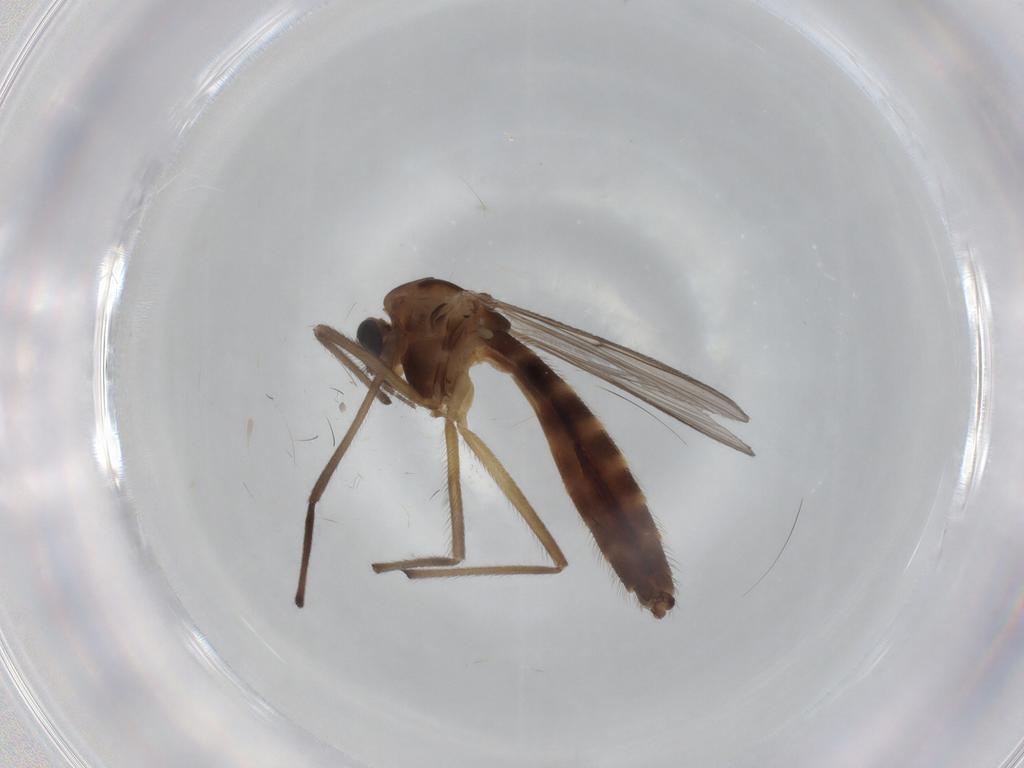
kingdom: Animalia
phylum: Arthropoda
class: Insecta
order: Diptera
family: Chironomidae
